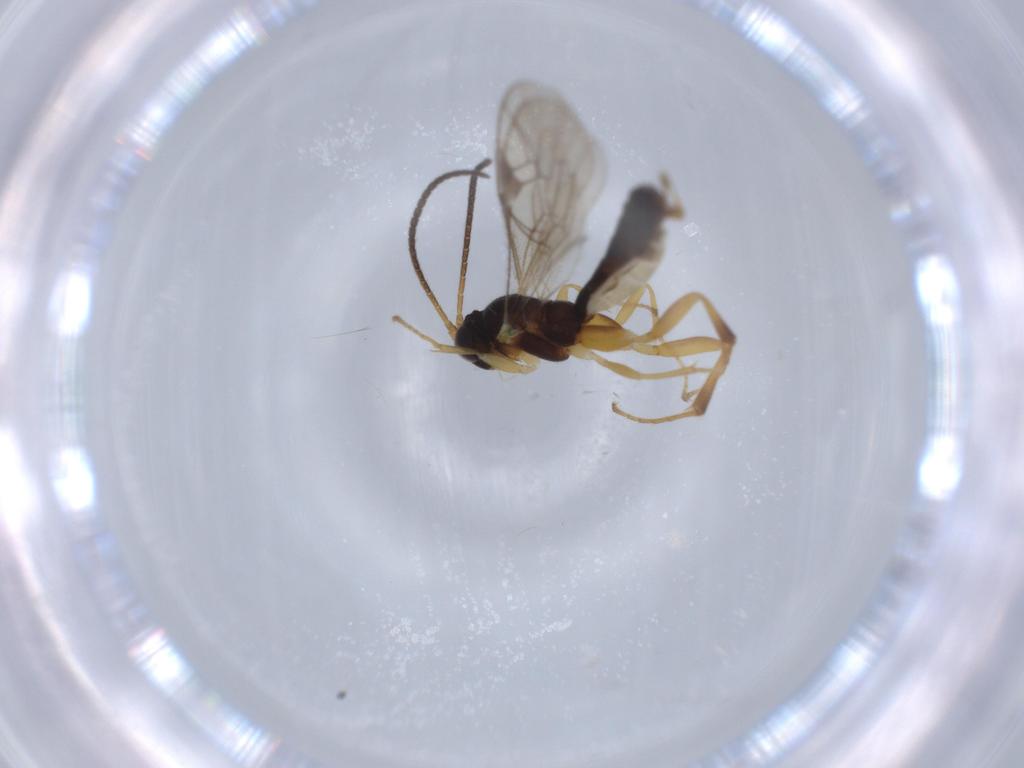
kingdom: Animalia
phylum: Arthropoda
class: Insecta
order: Hymenoptera
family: Ichneumonidae
